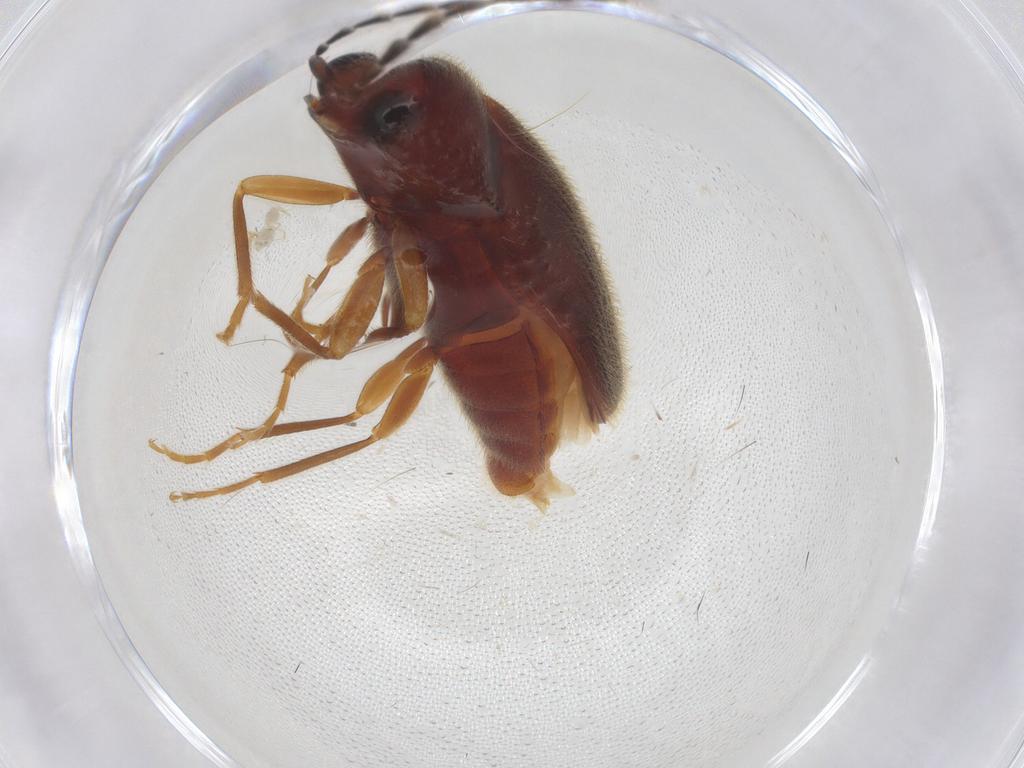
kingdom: Animalia
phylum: Arthropoda
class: Insecta
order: Coleoptera
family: Elateridae
